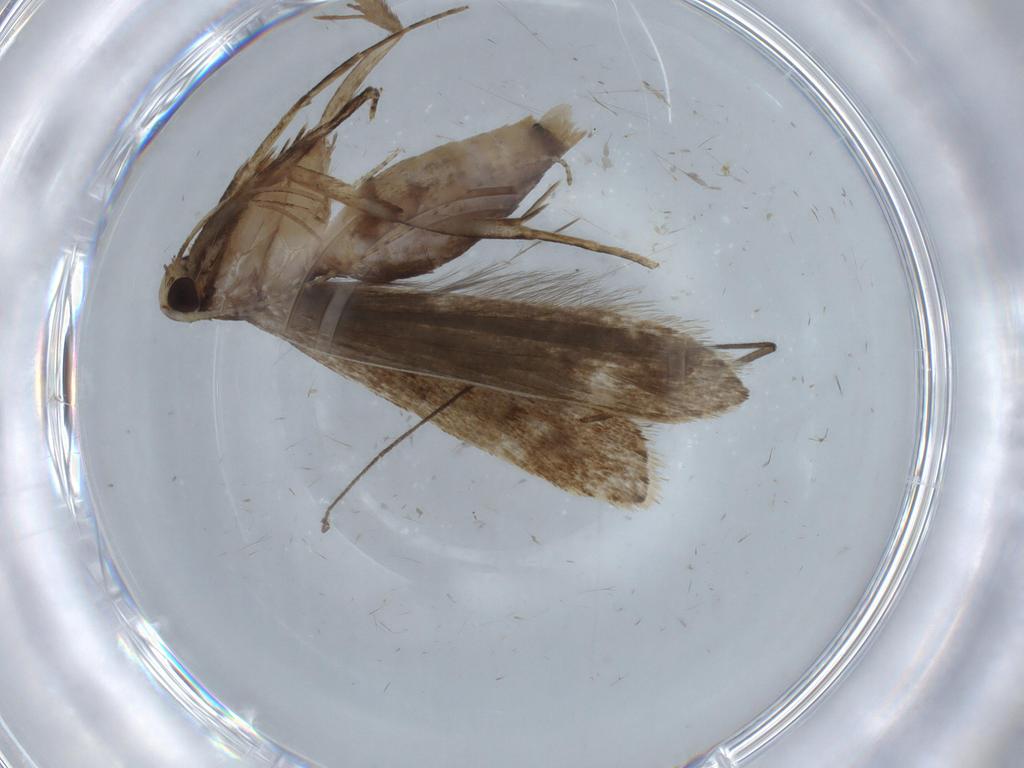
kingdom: Animalia
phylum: Arthropoda
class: Insecta
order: Lepidoptera
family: Gelechiidae
